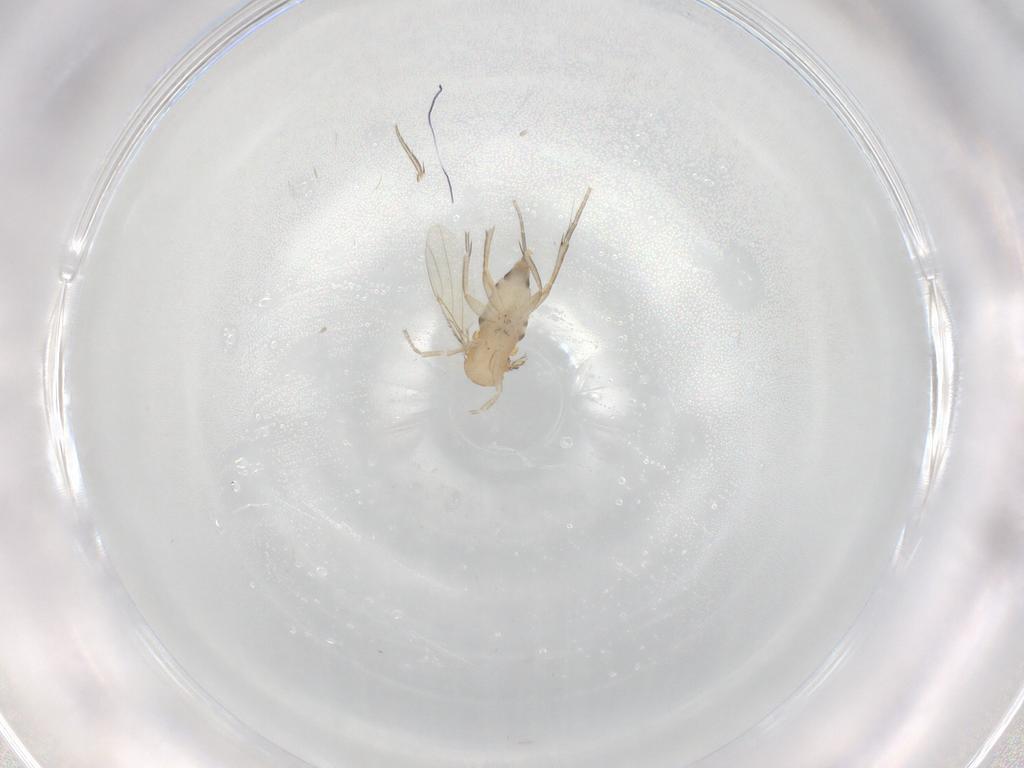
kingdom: Animalia
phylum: Arthropoda
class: Insecta
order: Diptera
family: Phoridae
